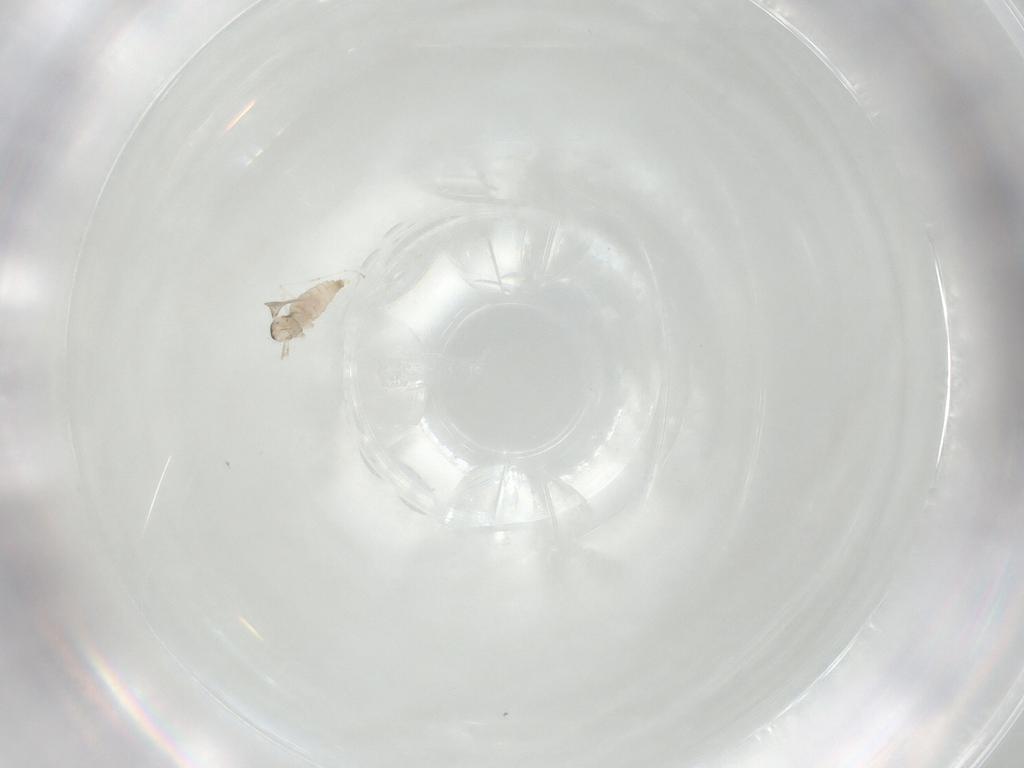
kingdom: Animalia
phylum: Arthropoda
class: Insecta
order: Diptera
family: Cecidomyiidae
